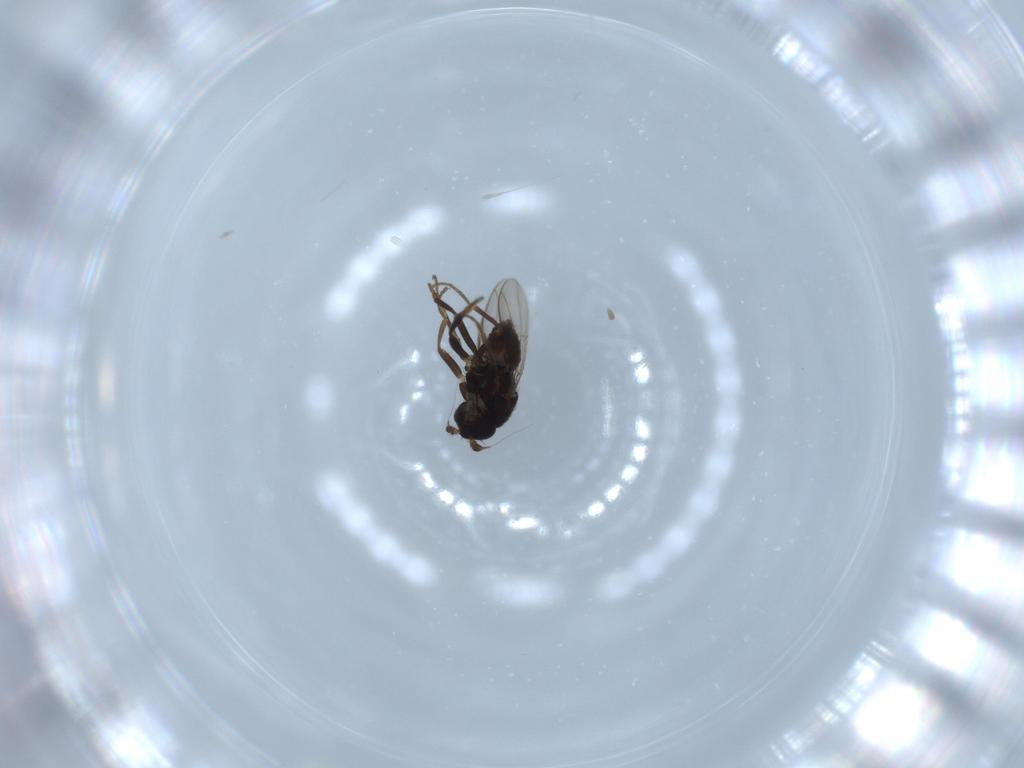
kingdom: Animalia
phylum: Arthropoda
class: Insecta
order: Diptera
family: Sphaeroceridae
